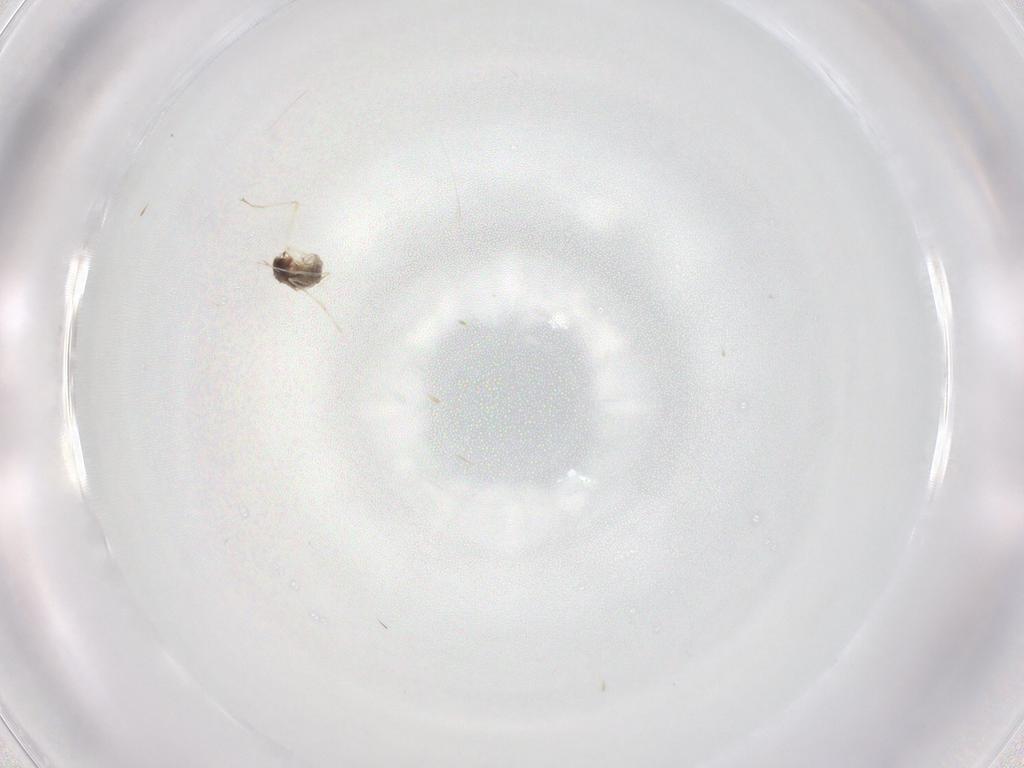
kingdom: Animalia
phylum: Arthropoda
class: Insecta
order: Diptera
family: Cecidomyiidae
